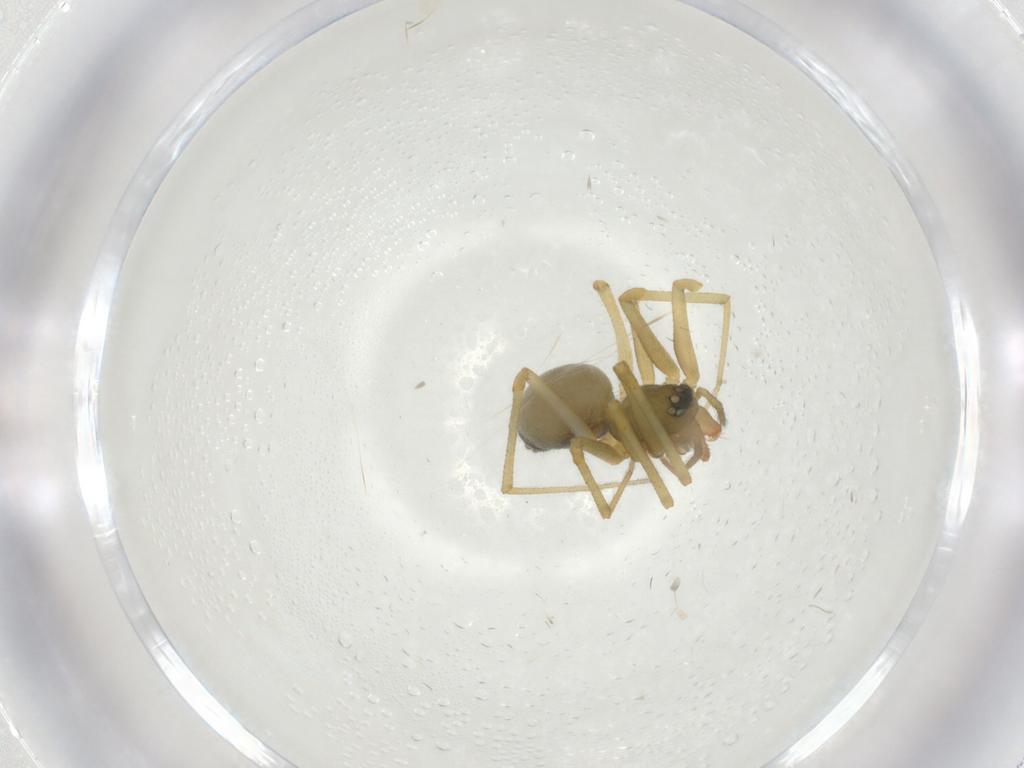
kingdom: Animalia
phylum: Arthropoda
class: Arachnida
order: Araneae
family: Linyphiidae
